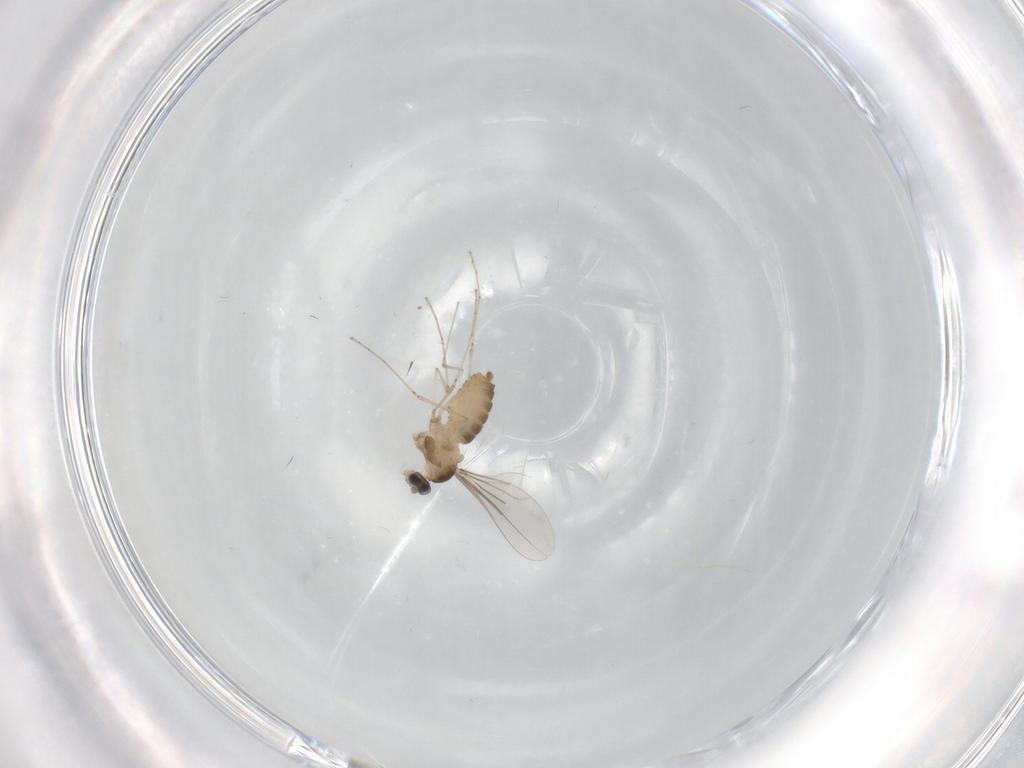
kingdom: Animalia
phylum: Arthropoda
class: Insecta
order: Diptera
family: Cecidomyiidae
